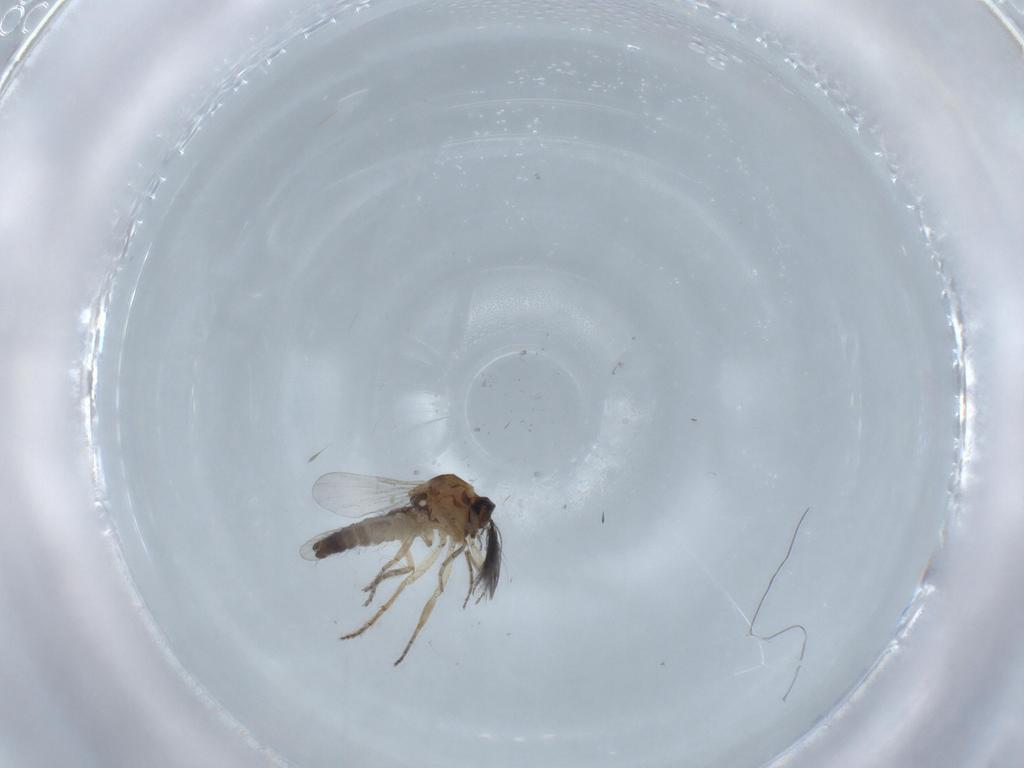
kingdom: Animalia
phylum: Arthropoda
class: Insecta
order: Diptera
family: Ceratopogonidae
